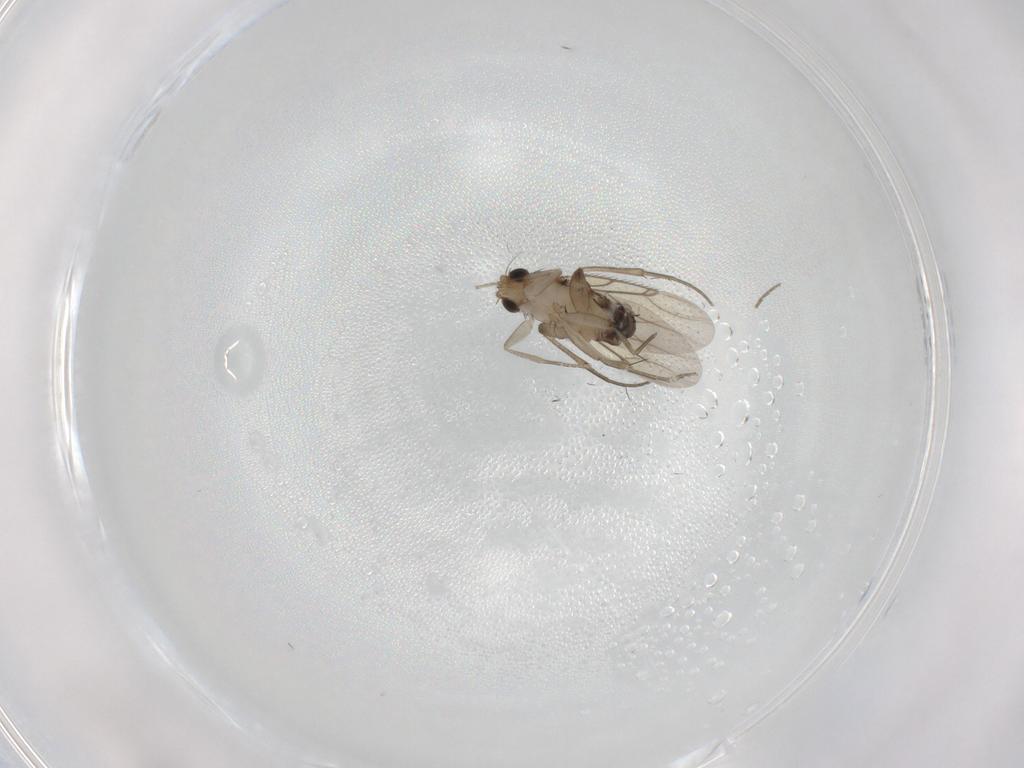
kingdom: Animalia
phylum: Arthropoda
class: Insecta
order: Diptera
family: Phoridae
